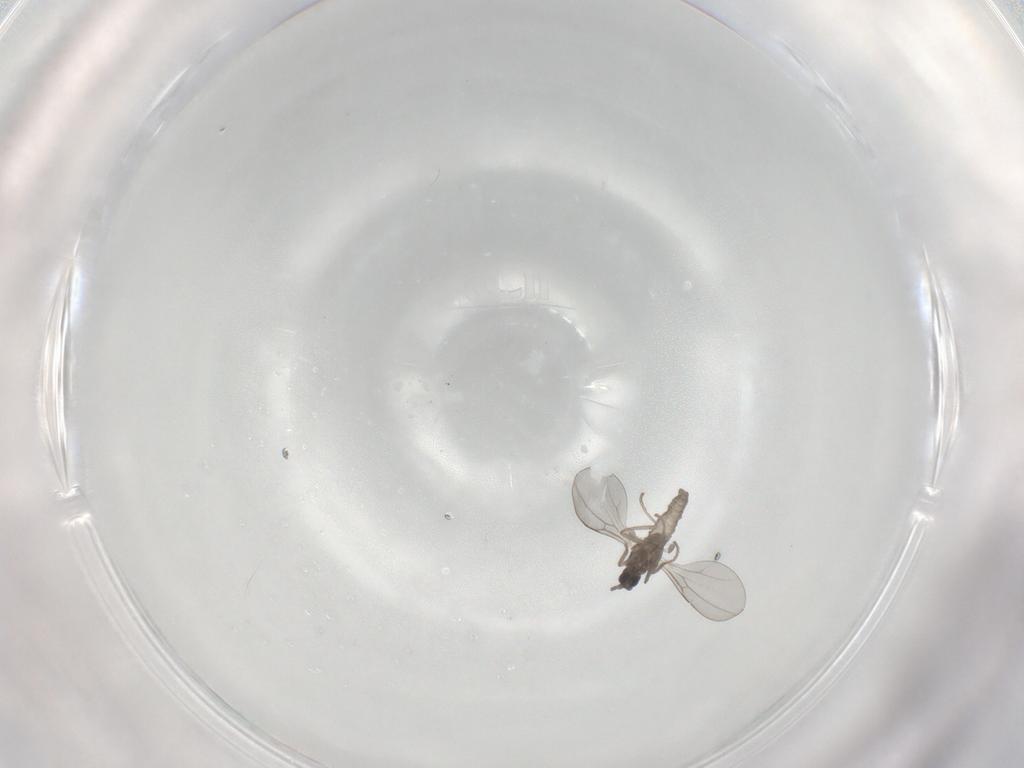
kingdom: Animalia
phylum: Arthropoda
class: Insecta
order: Diptera
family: Cecidomyiidae
